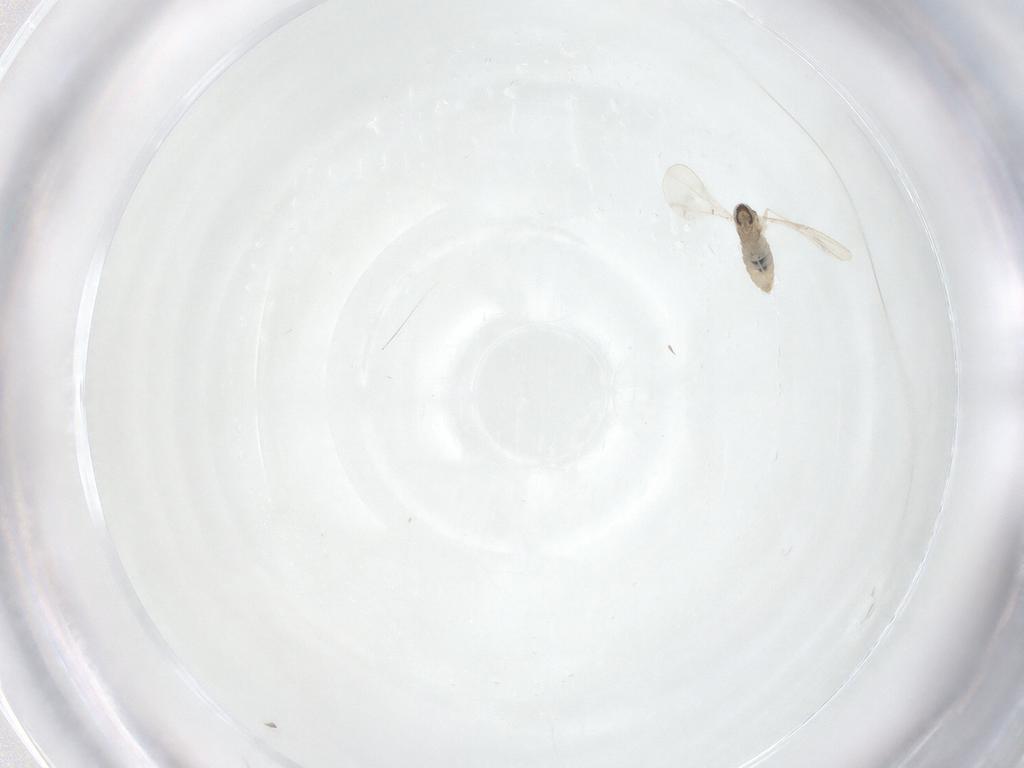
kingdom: Animalia
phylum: Arthropoda
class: Insecta
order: Diptera
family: Cecidomyiidae
